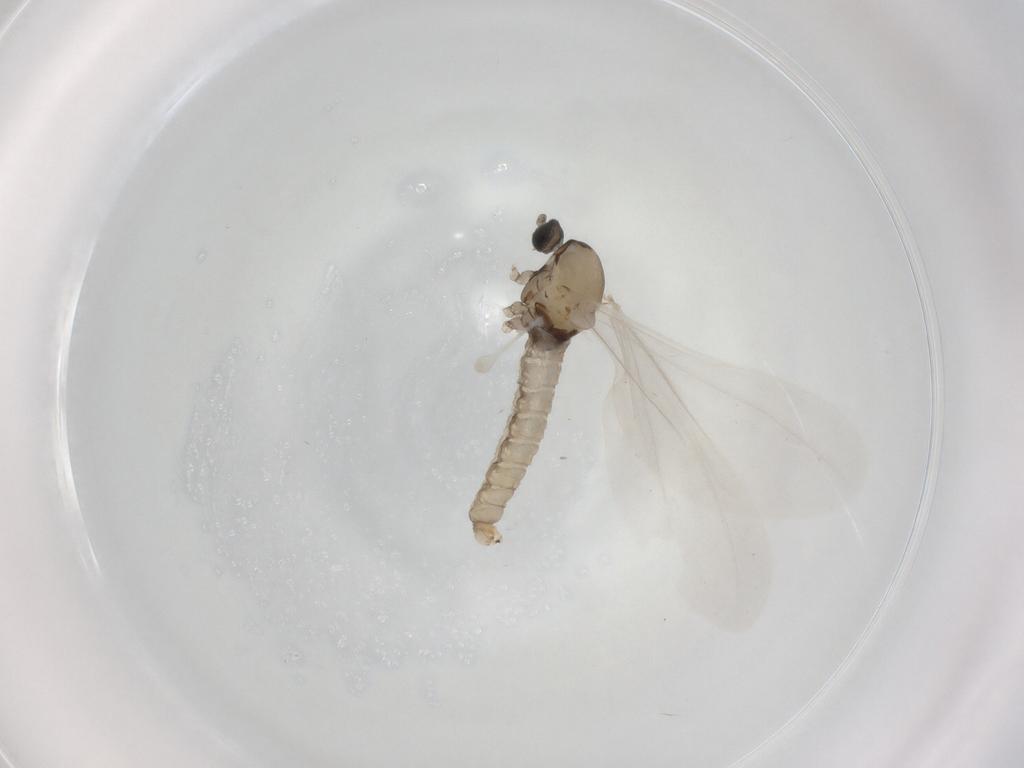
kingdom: Animalia
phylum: Arthropoda
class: Insecta
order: Diptera
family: Cecidomyiidae
